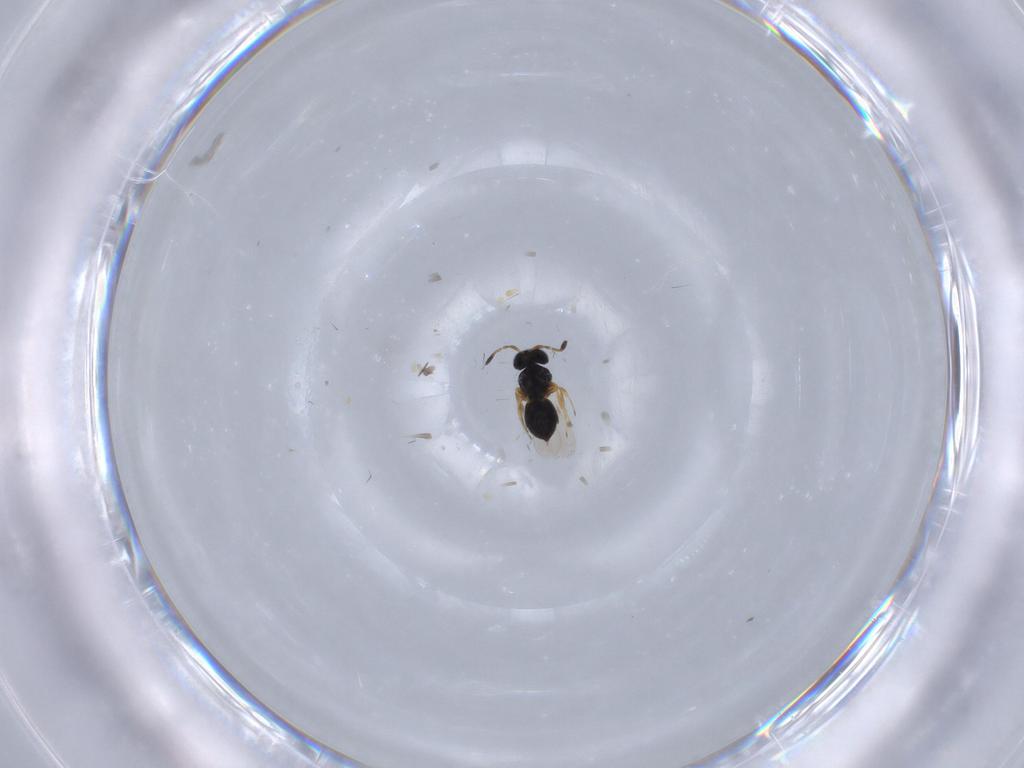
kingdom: Animalia
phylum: Arthropoda
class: Insecta
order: Hymenoptera
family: Scelionidae
